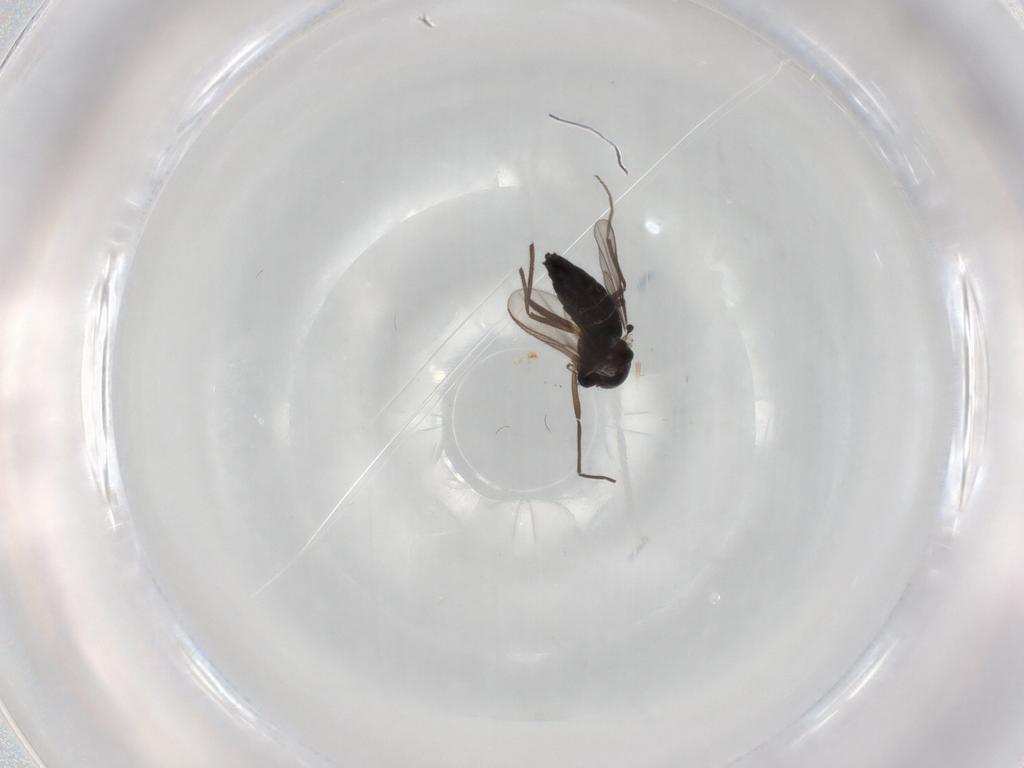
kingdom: Animalia
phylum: Arthropoda
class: Insecta
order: Diptera
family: Chironomidae
